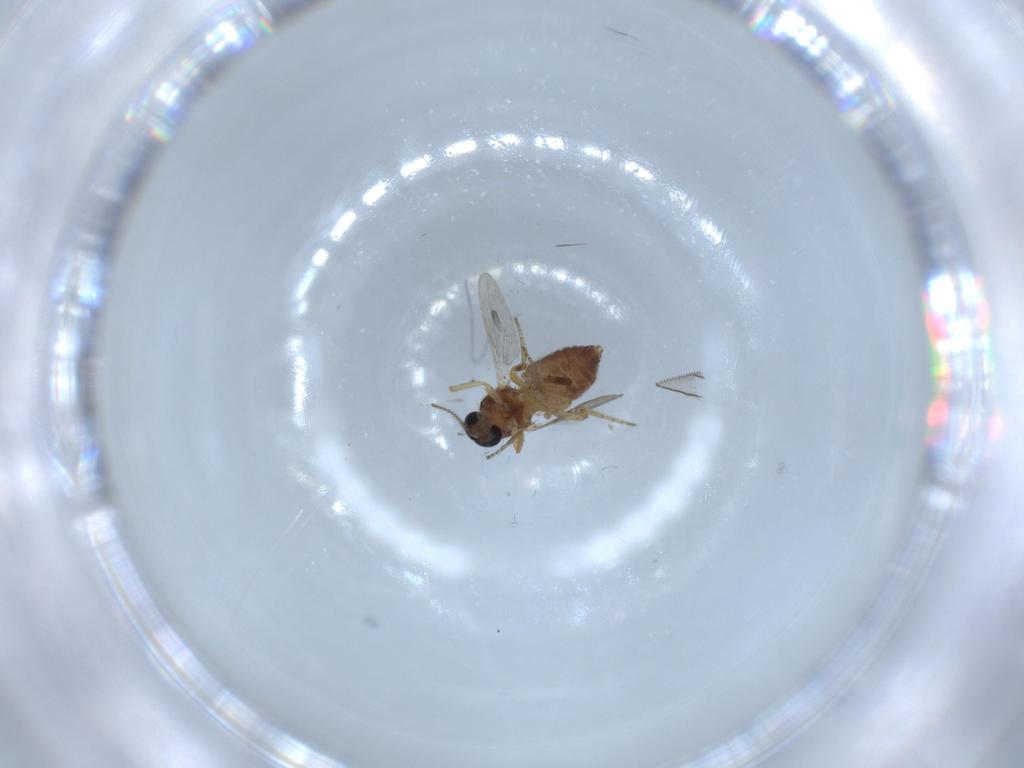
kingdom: Animalia
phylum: Arthropoda
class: Insecta
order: Diptera
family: Ceratopogonidae
